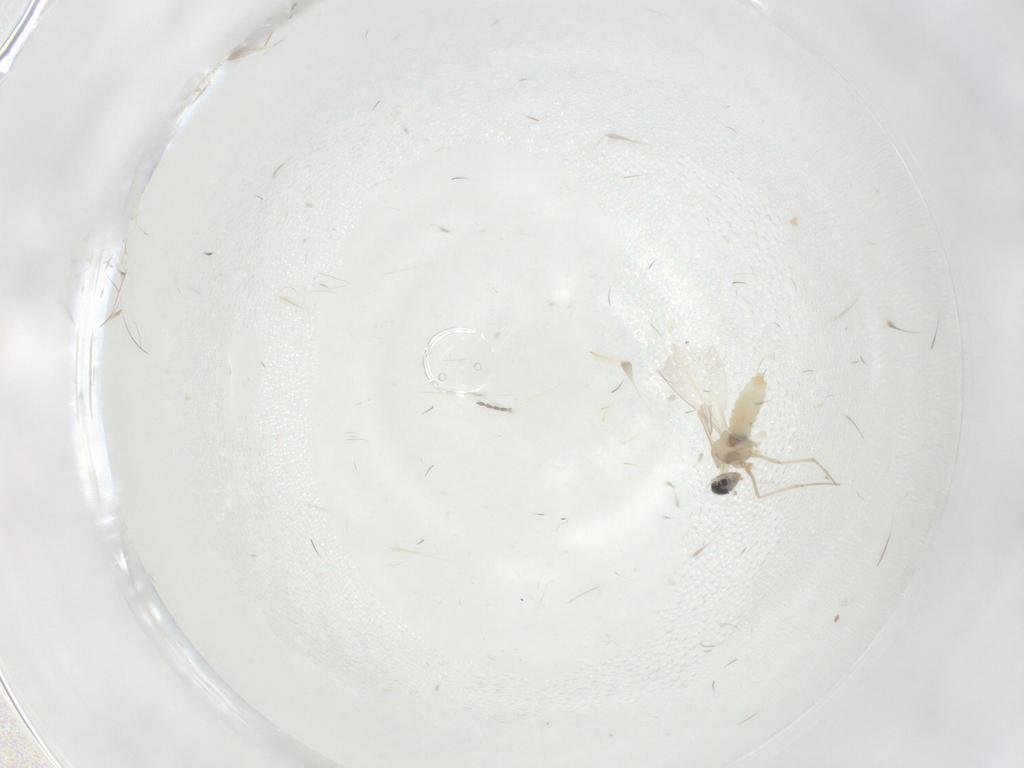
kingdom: Animalia
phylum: Arthropoda
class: Insecta
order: Diptera
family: Cecidomyiidae
